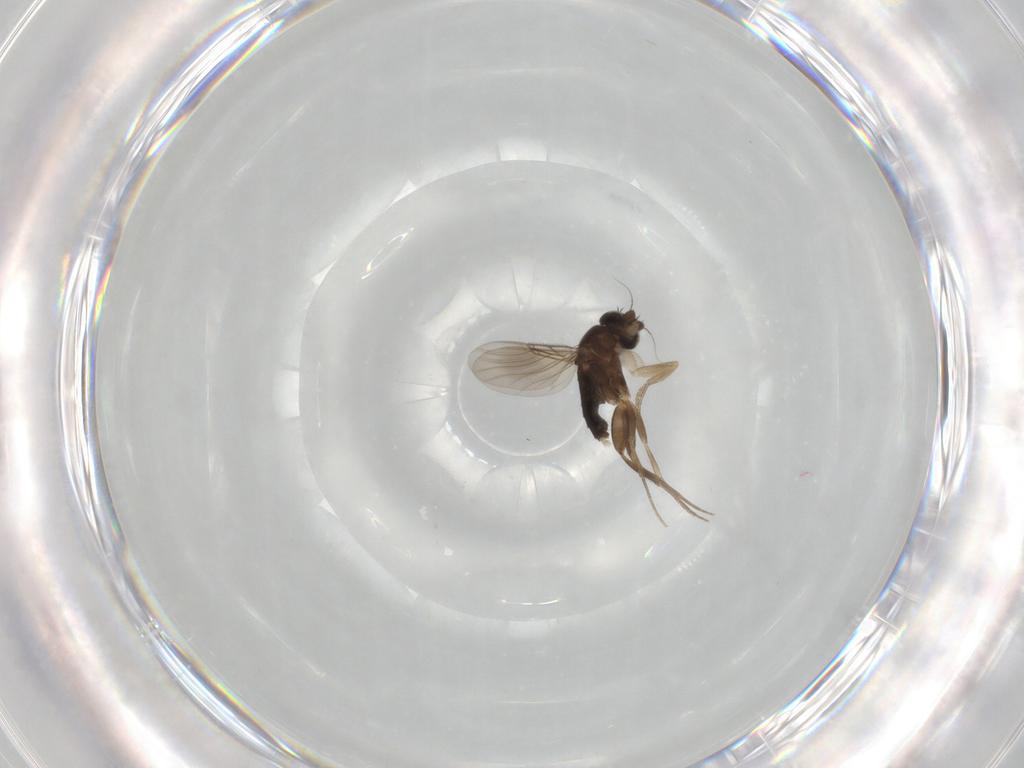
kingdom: Animalia
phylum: Arthropoda
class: Insecta
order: Diptera
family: Phoridae
